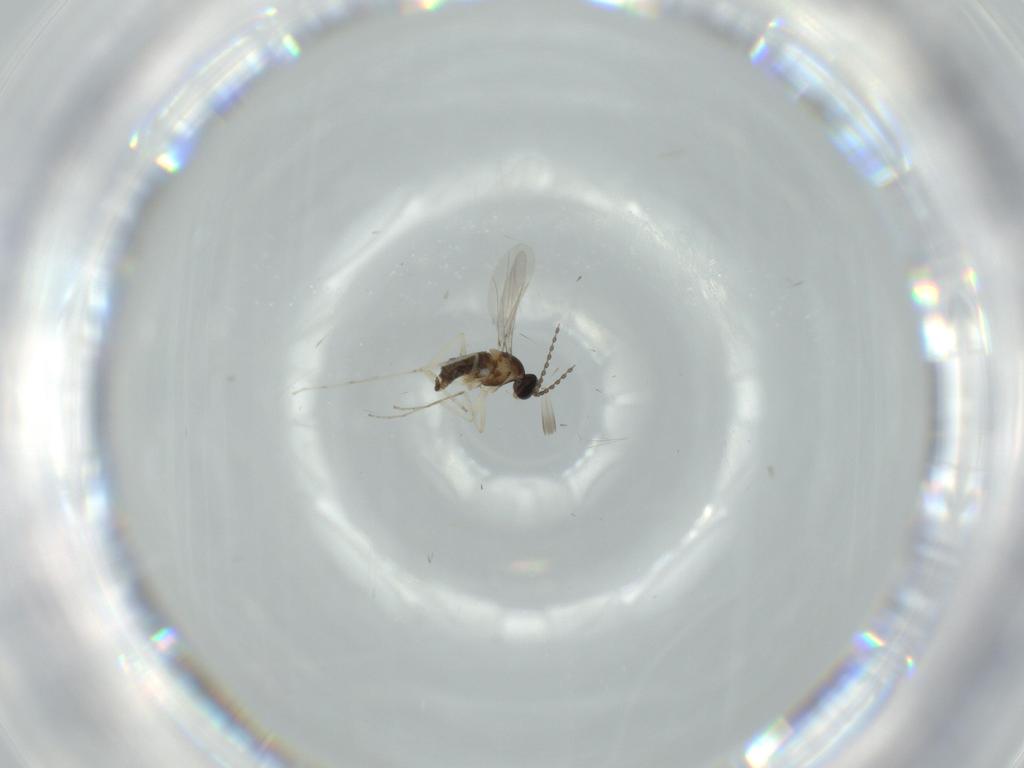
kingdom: Animalia
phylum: Arthropoda
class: Insecta
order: Diptera
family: Cecidomyiidae
